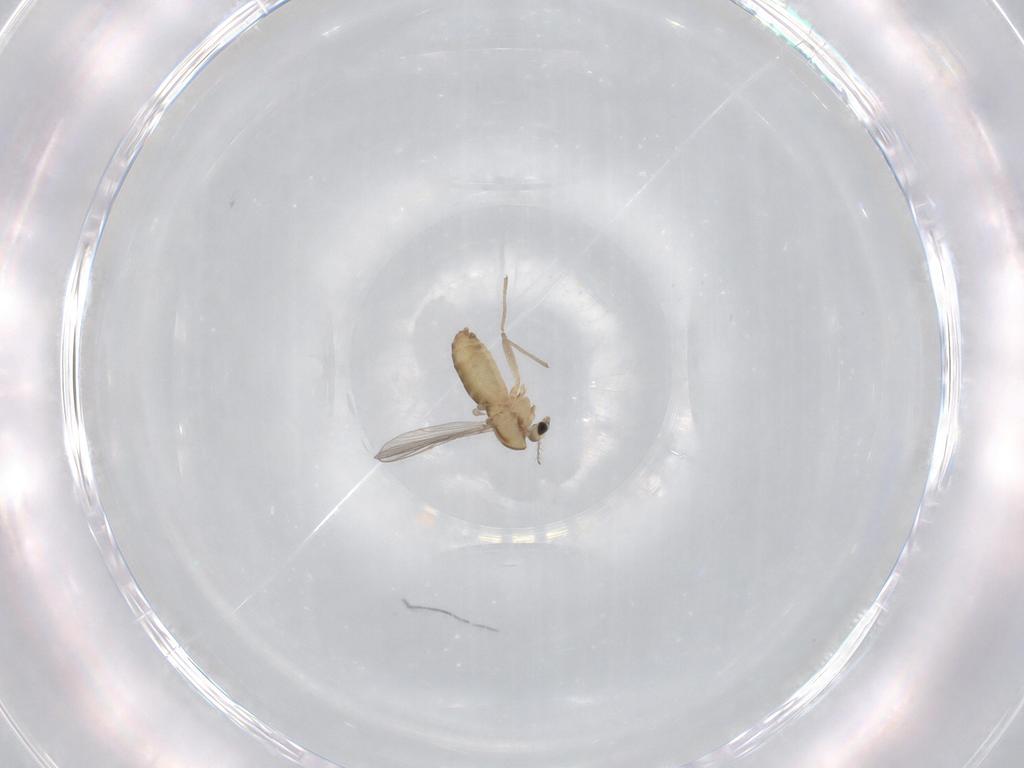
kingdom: Animalia
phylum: Arthropoda
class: Insecta
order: Diptera
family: Chironomidae
